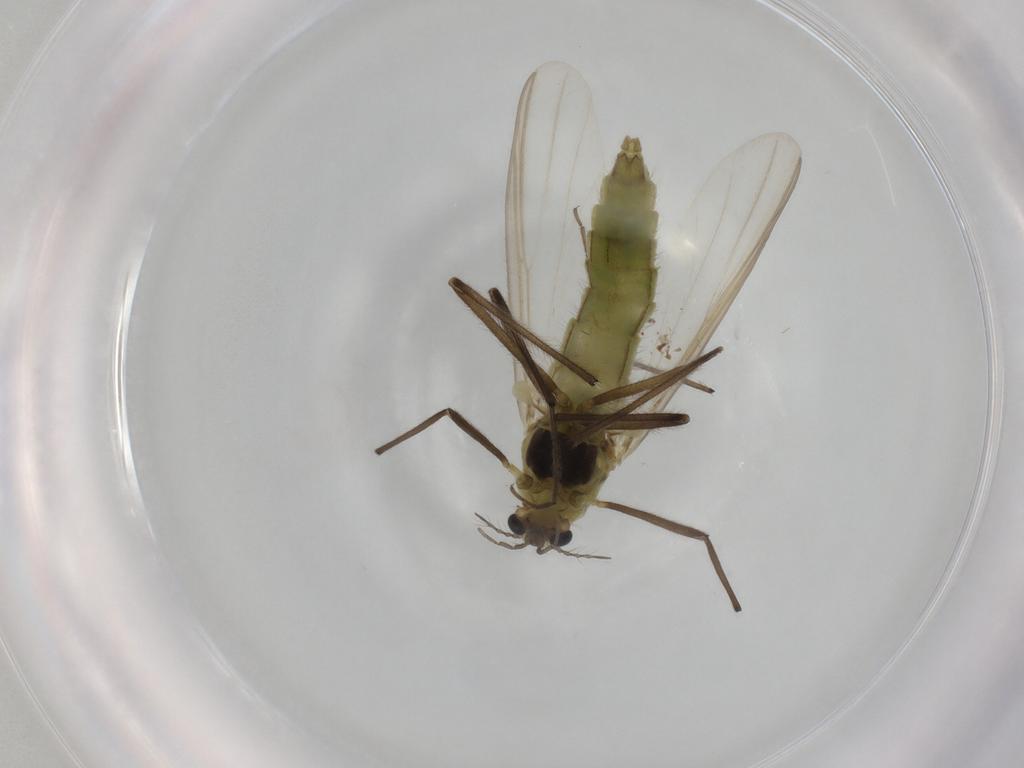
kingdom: Animalia
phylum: Arthropoda
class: Insecta
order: Diptera
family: Chironomidae
